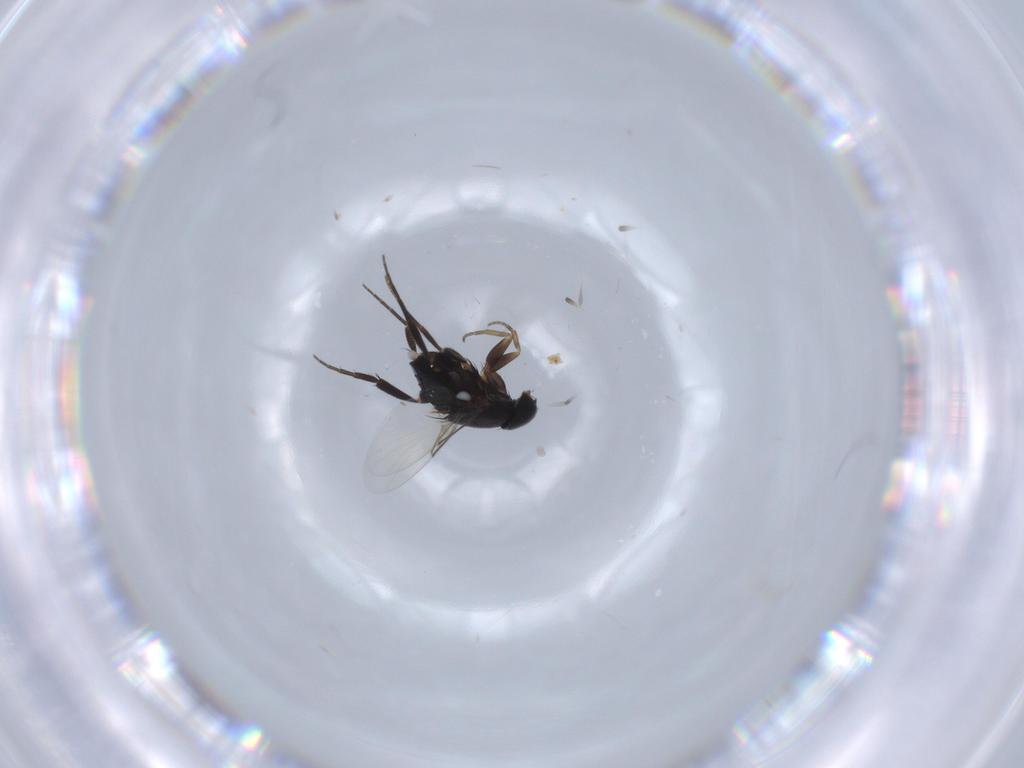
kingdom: Animalia
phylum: Arthropoda
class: Insecta
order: Diptera
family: Phoridae
